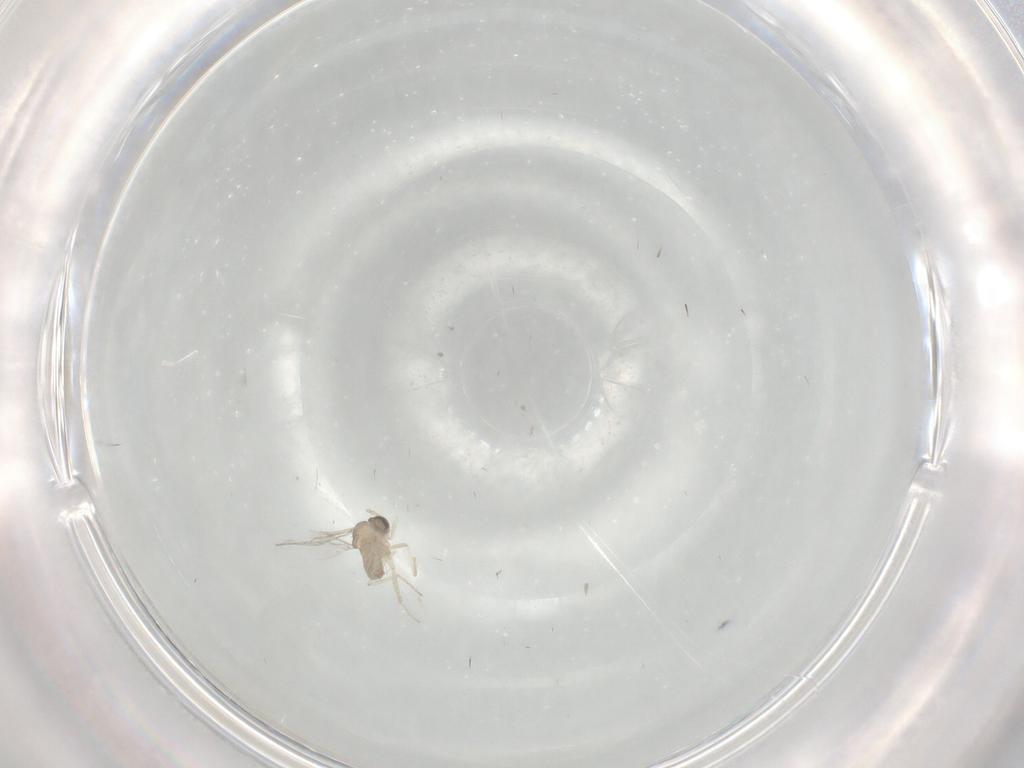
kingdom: Animalia
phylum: Arthropoda
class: Insecta
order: Diptera
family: Cecidomyiidae
